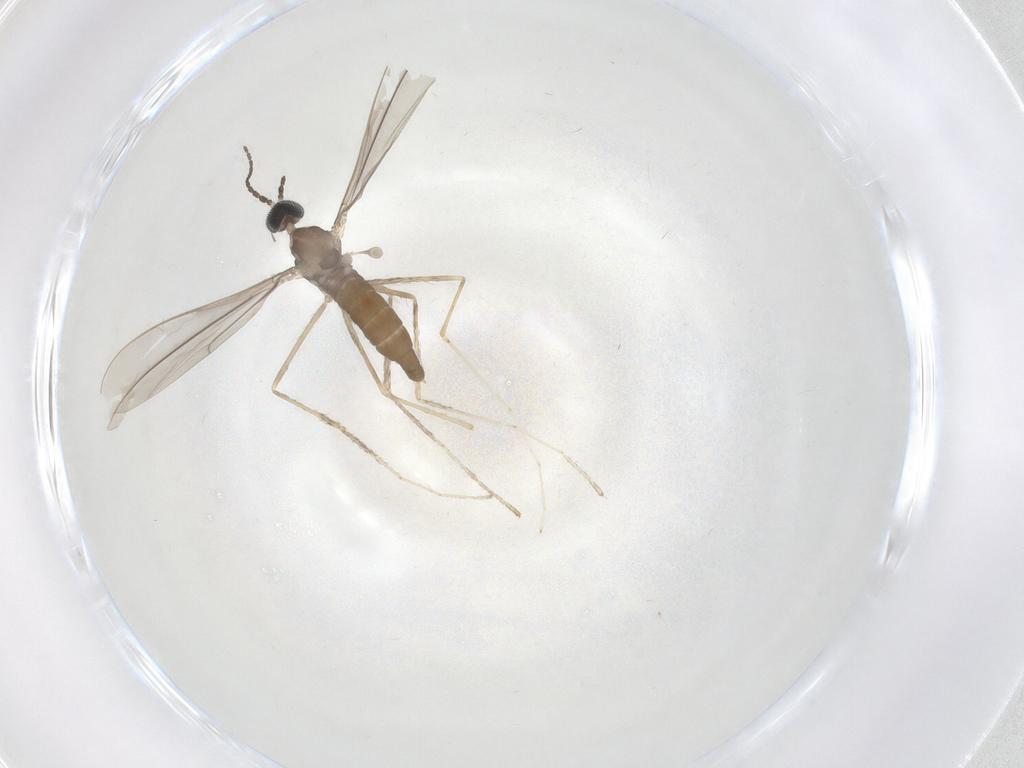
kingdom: Animalia
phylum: Arthropoda
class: Insecta
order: Diptera
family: Cecidomyiidae
